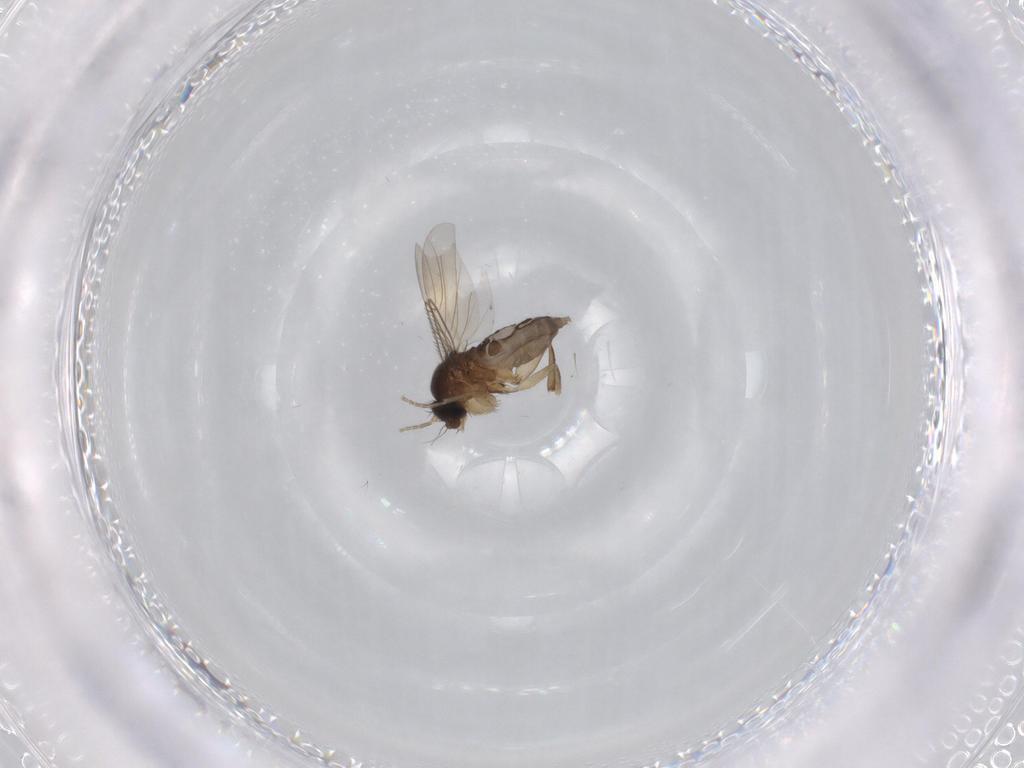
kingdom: Animalia
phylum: Arthropoda
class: Insecta
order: Diptera
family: Phoridae
